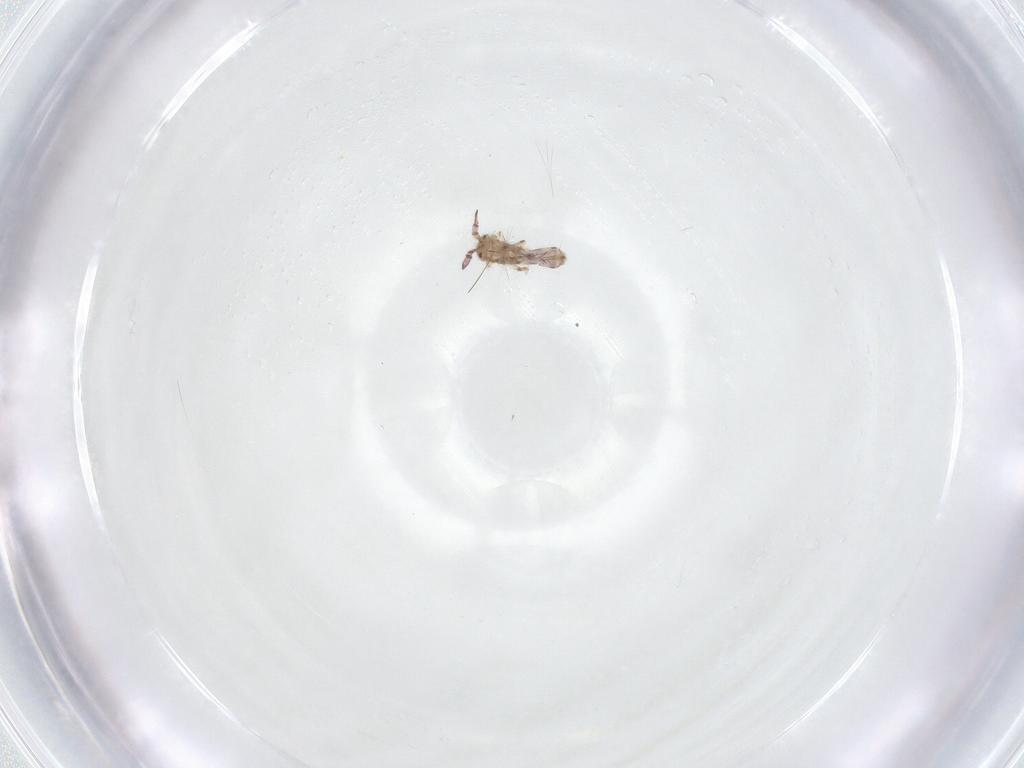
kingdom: Animalia
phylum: Arthropoda
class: Collembola
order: Entomobryomorpha
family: Entomobryidae
